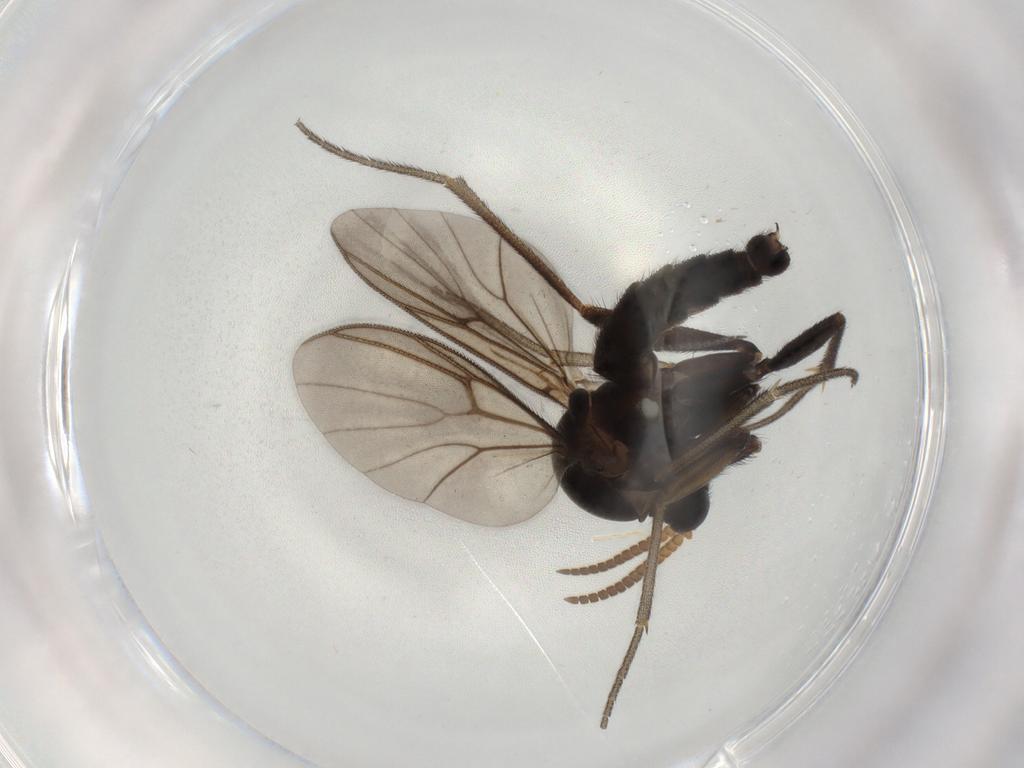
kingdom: Animalia
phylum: Arthropoda
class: Insecta
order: Diptera
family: Mycetophilidae
